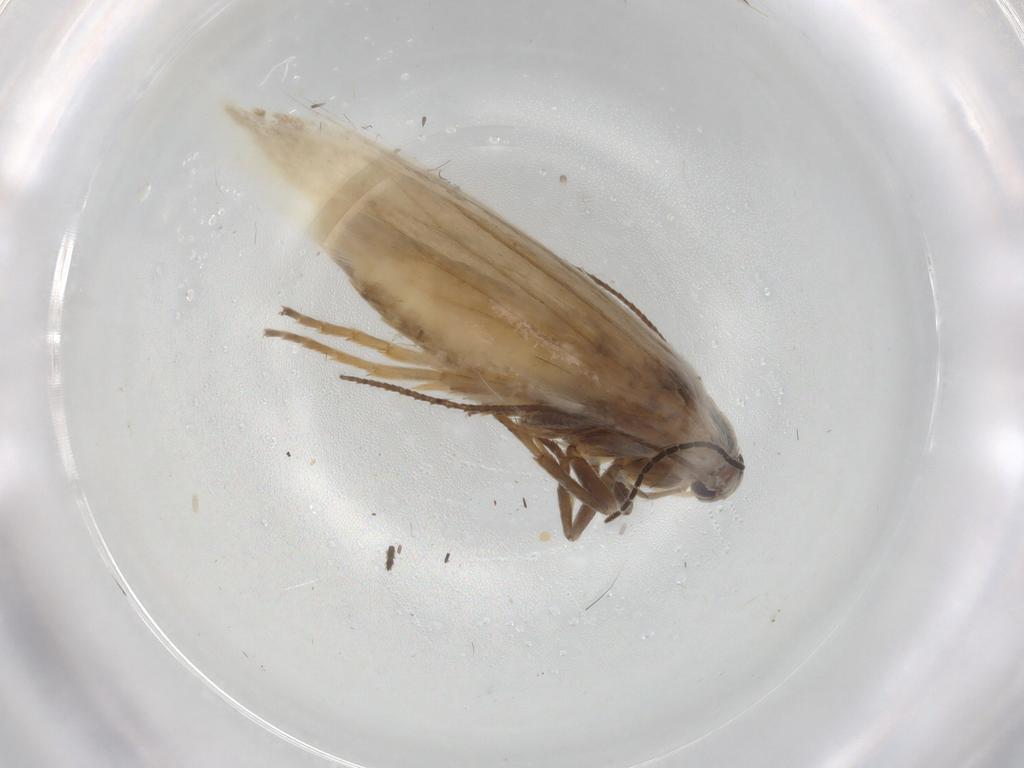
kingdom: Animalia
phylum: Arthropoda
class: Insecta
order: Lepidoptera
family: Elachistidae
